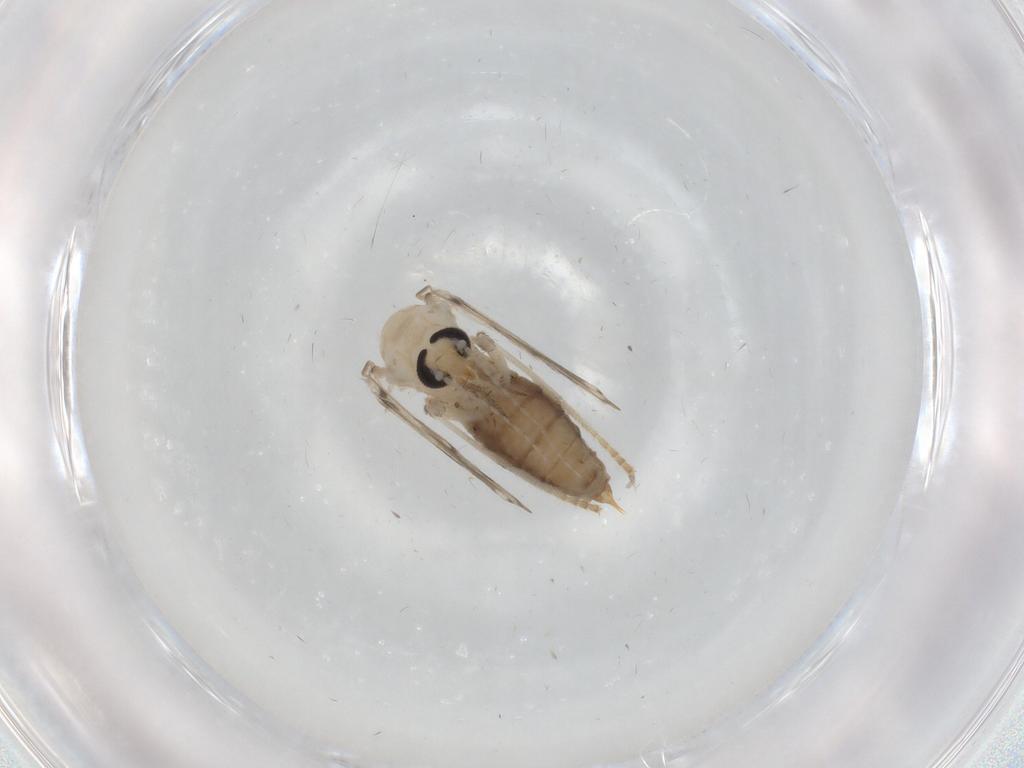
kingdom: Animalia
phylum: Arthropoda
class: Insecta
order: Diptera
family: Psychodidae
